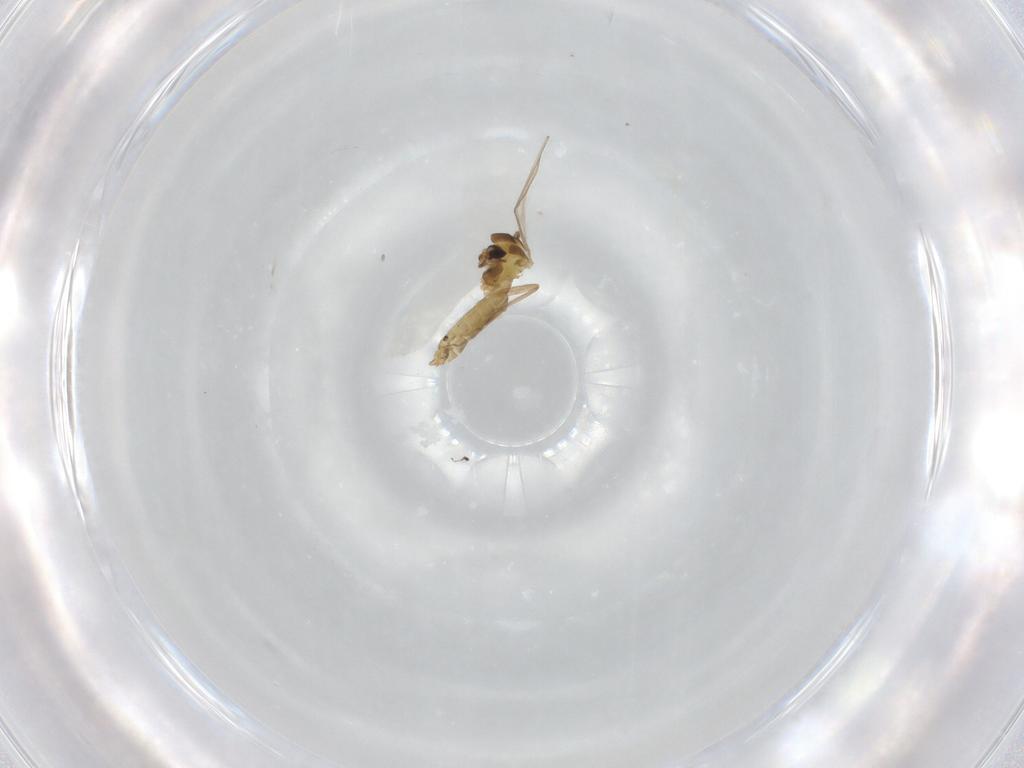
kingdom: Animalia
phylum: Arthropoda
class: Insecta
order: Diptera
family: Chironomidae
